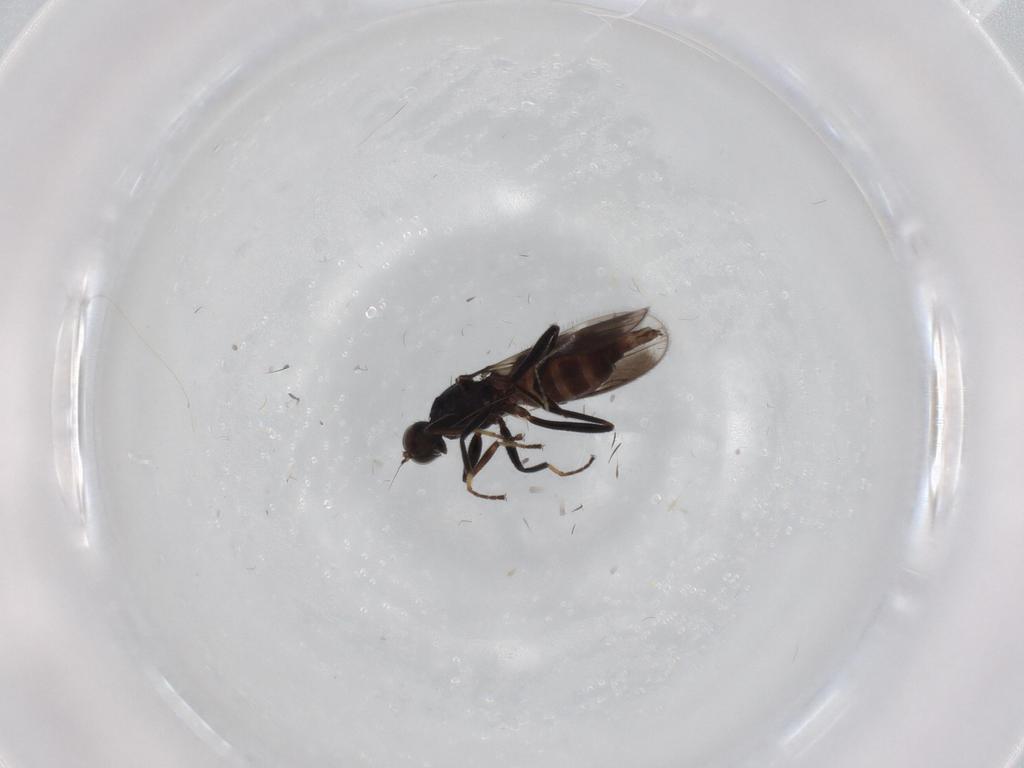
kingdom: Animalia
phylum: Arthropoda
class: Insecta
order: Diptera
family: Hybotidae
